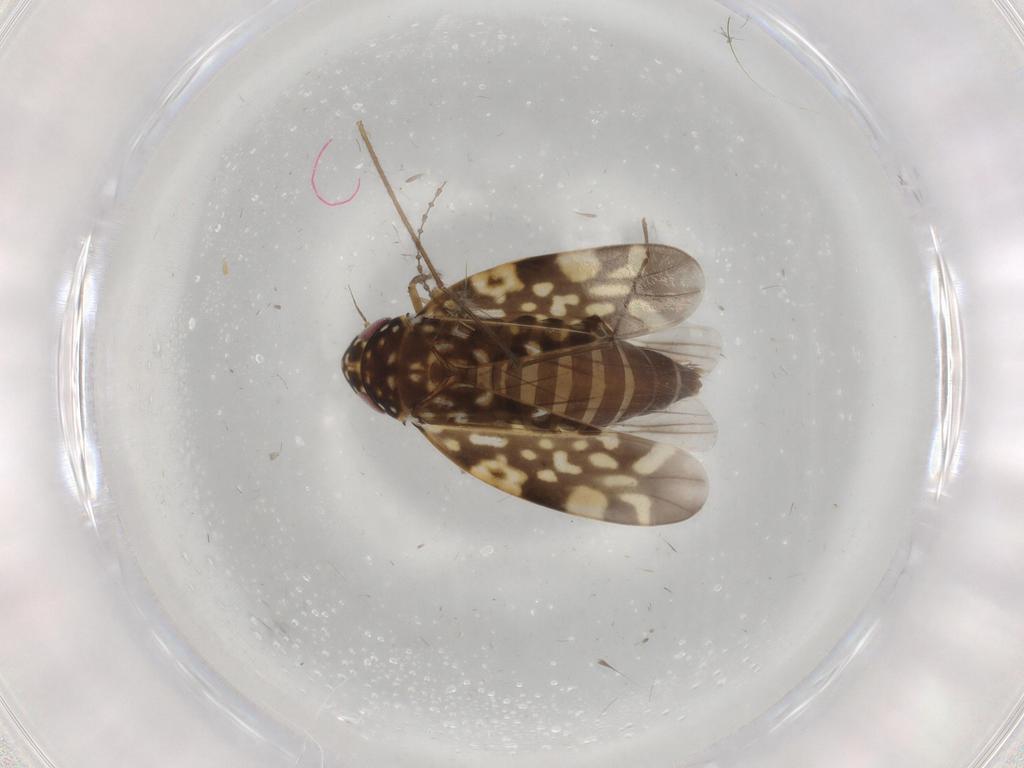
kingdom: Animalia
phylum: Arthropoda
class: Insecta
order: Hemiptera
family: Cicadellidae
